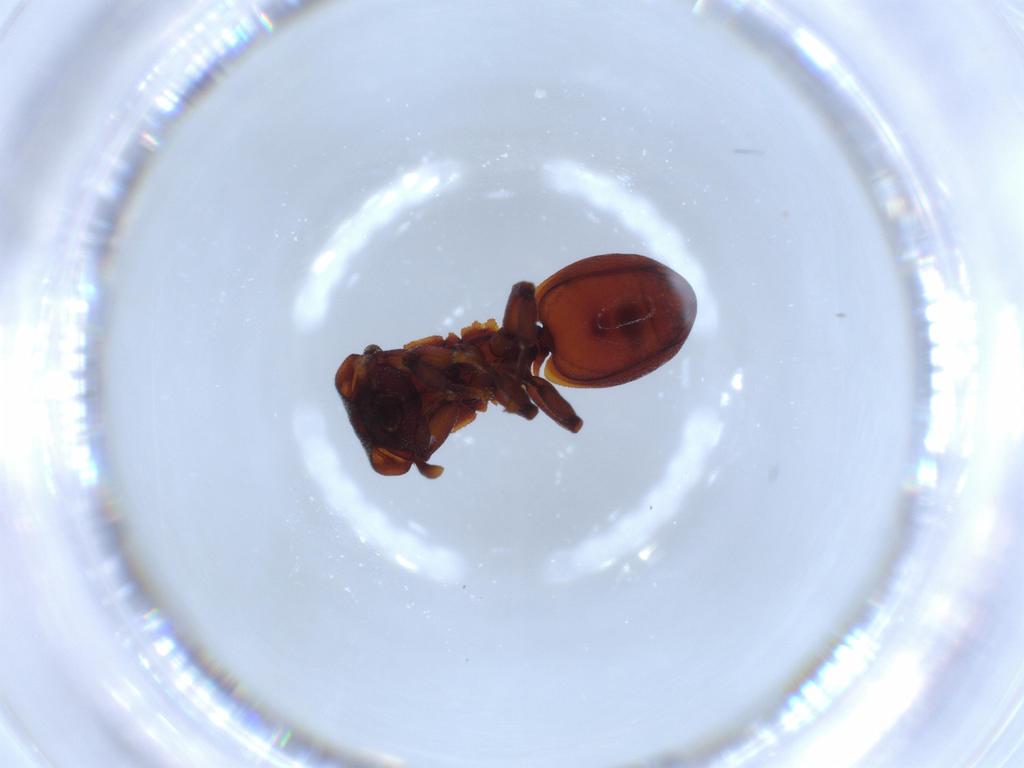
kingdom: Animalia
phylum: Arthropoda
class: Insecta
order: Hymenoptera
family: Formicidae
